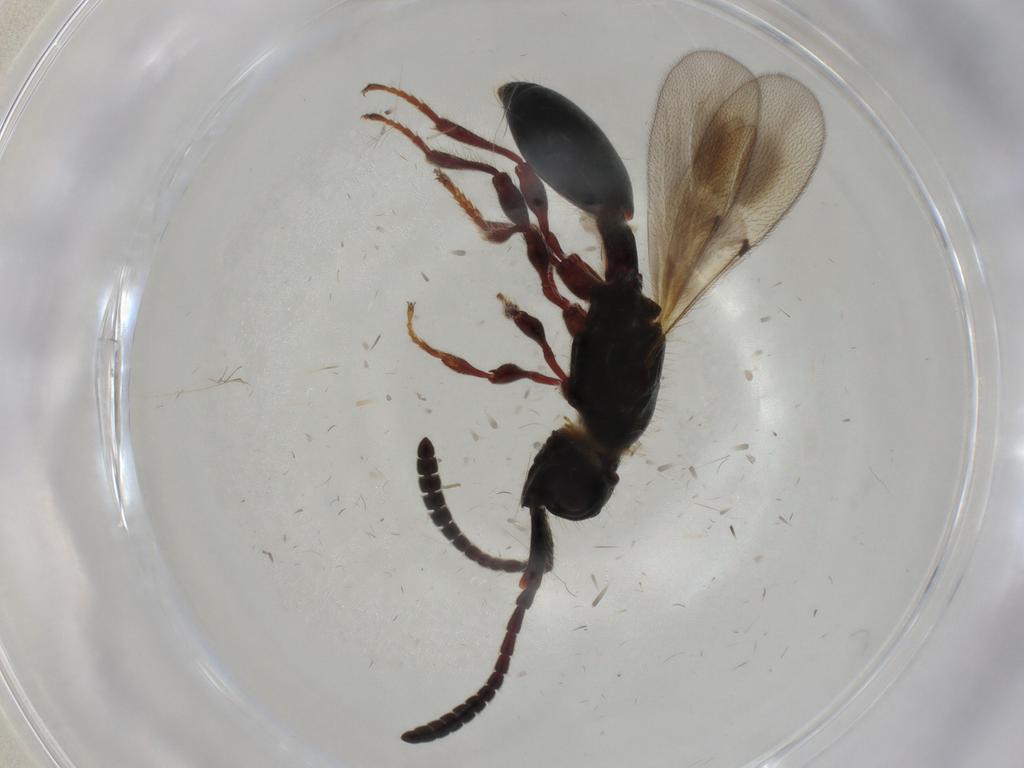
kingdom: Animalia
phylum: Arthropoda
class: Insecta
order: Hymenoptera
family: Diapriidae
